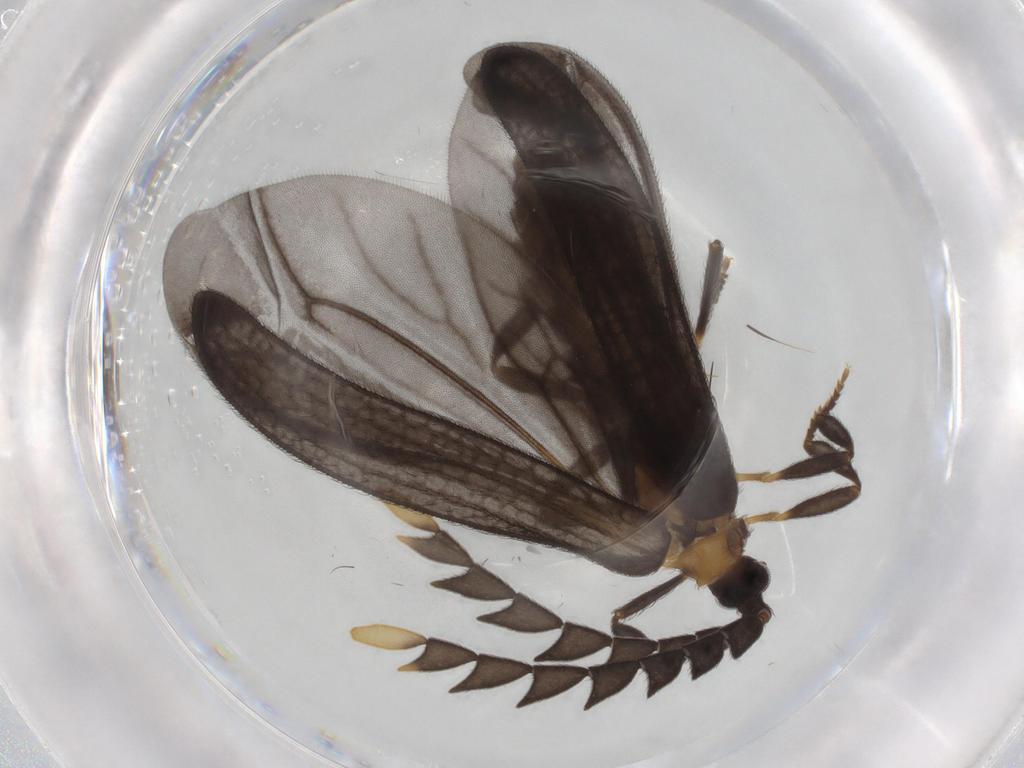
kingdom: Animalia
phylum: Arthropoda
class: Insecta
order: Coleoptera
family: Lycidae
